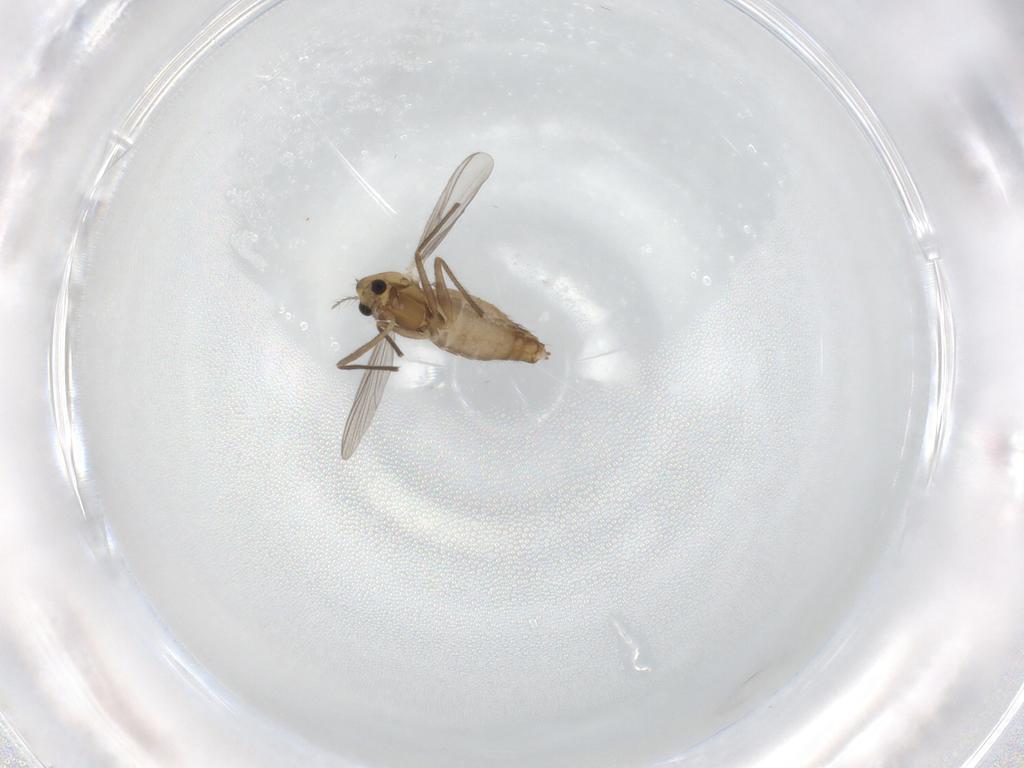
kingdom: Animalia
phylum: Arthropoda
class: Insecta
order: Diptera
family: Chironomidae
